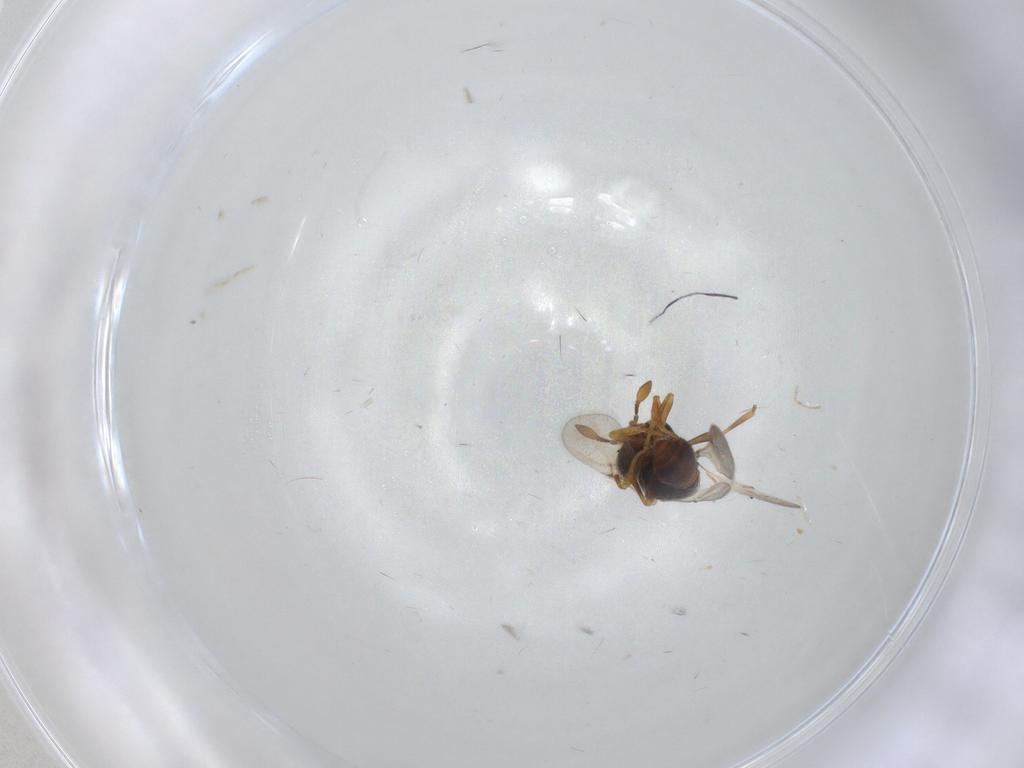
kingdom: Animalia
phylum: Arthropoda
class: Insecta
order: Hymenoptera
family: Scelionidae
